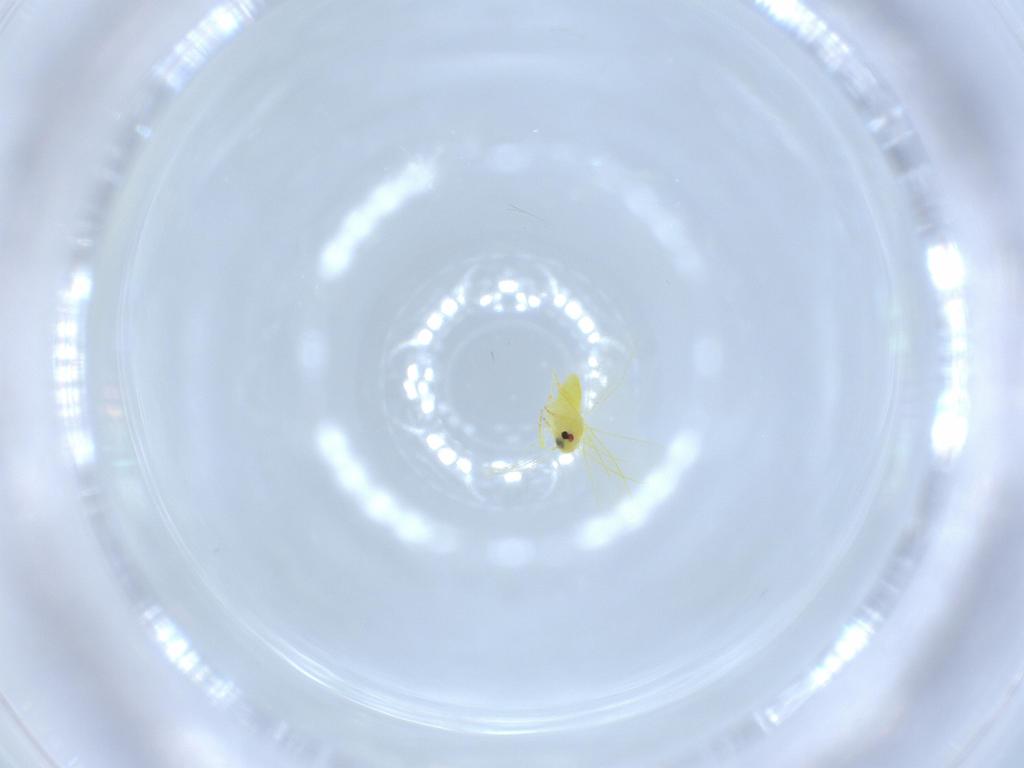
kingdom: Animalia
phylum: Arthropoda
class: Insecta
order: Hemiptera
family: Aleyrodidae
